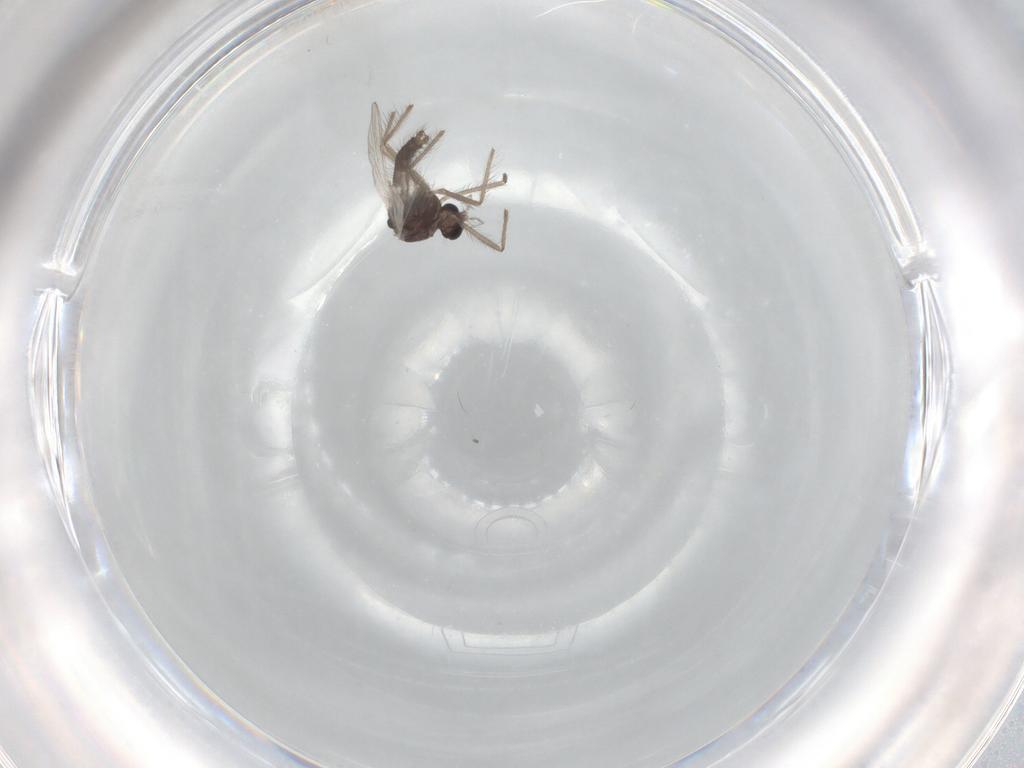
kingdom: Animalia
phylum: Arthropoda
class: Insecta
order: Diptera
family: Chironomidae
